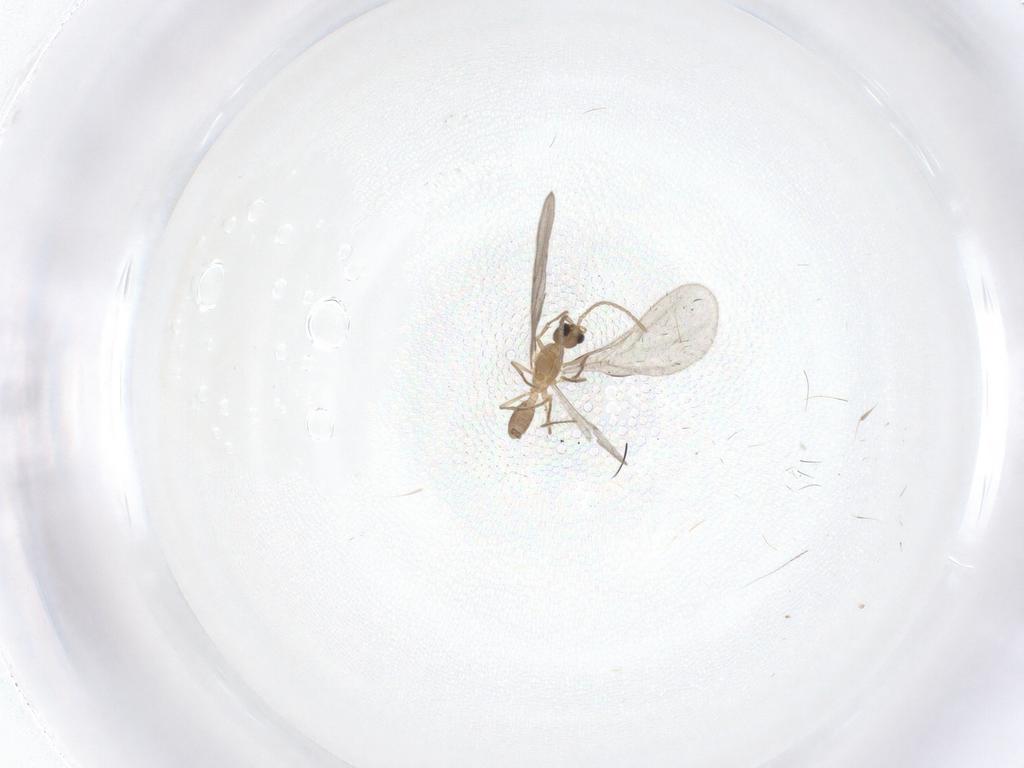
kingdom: Animalia
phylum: Arthropoda
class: Insecta
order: Hymenoptera
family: Formicidae
